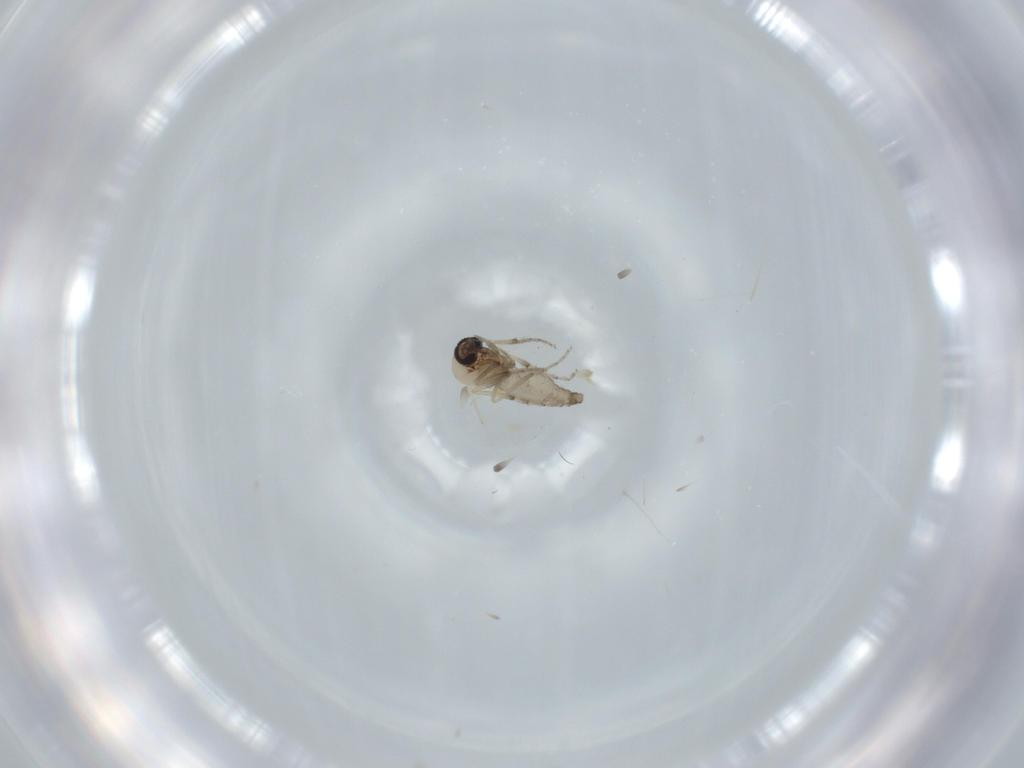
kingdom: Animalia
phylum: Arthropoda
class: Insecta
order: Diptera
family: Ceratopogonidae
